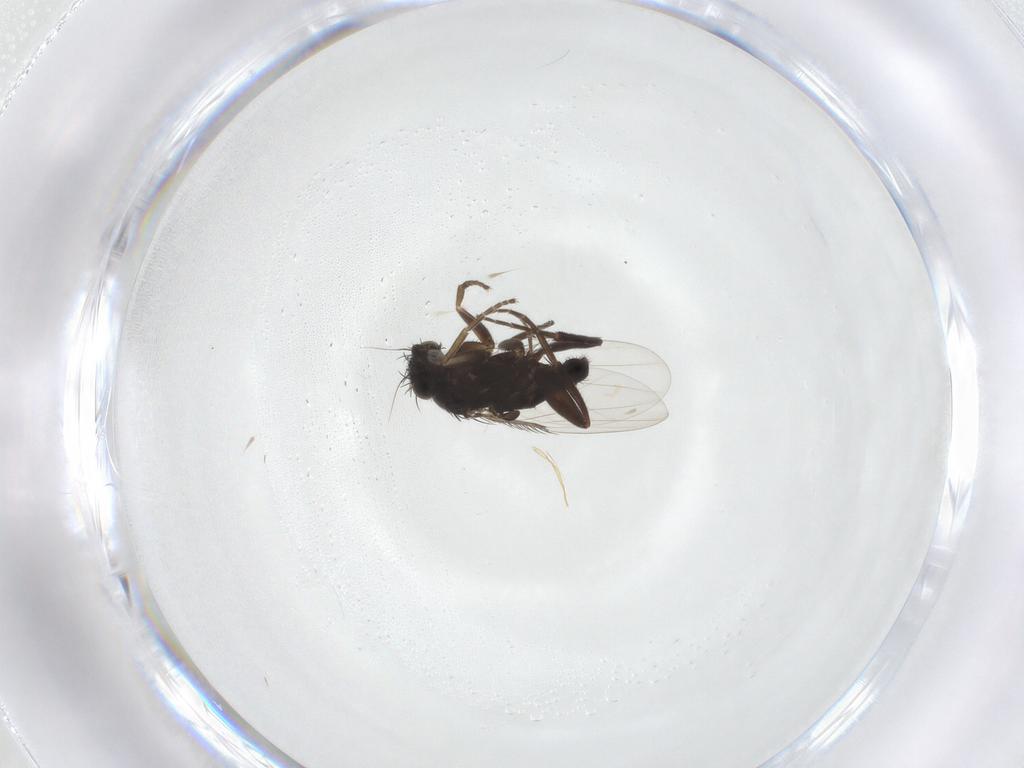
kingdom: Animalia
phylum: Arthropoda
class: Insecta
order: Diptera
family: Phoridae
